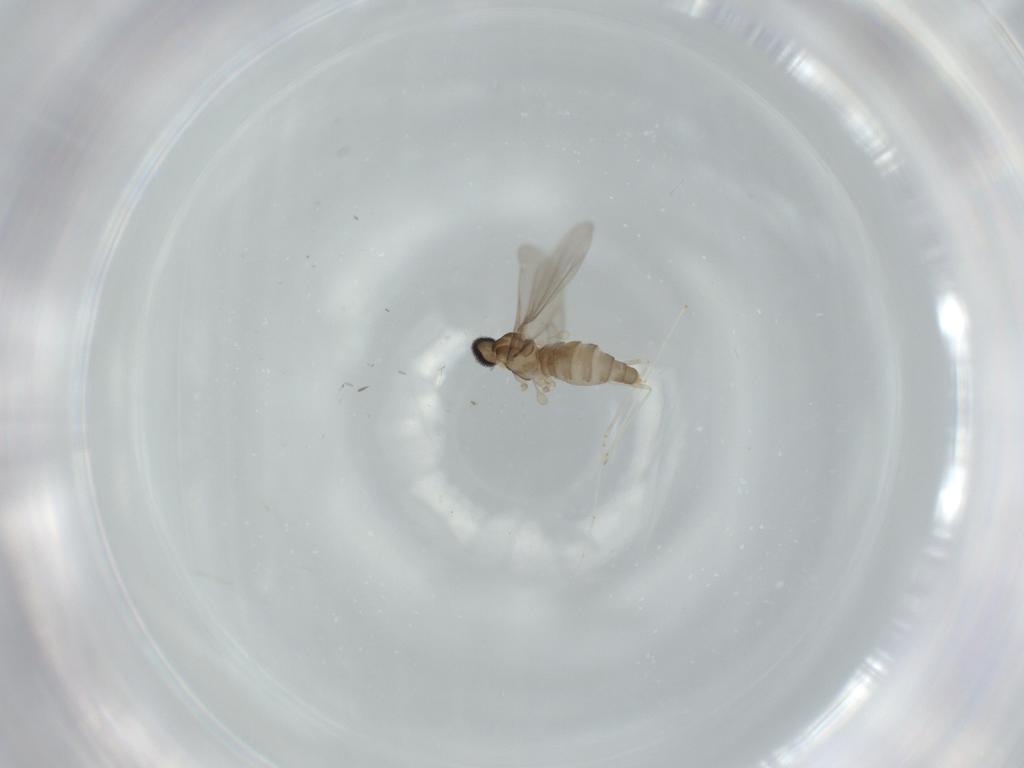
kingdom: Animalia
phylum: Arthropoda
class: Insecta
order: Diptera
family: Cecidomyiidae
